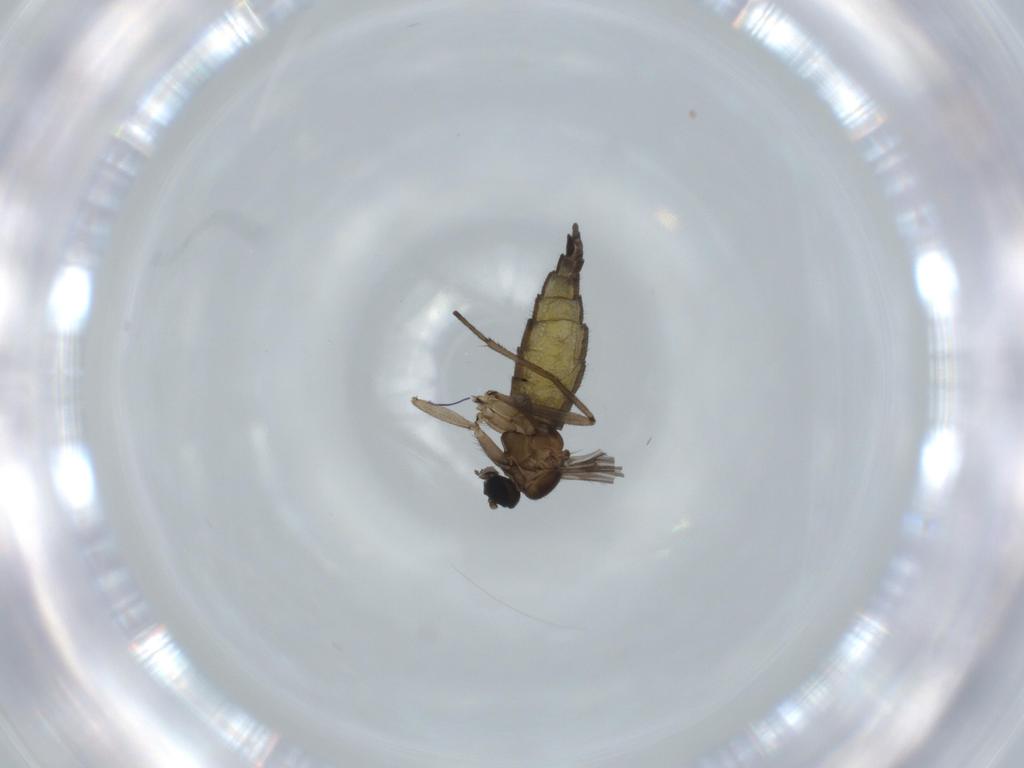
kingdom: Animalia
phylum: Arthropoda
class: Insecta
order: Diptera
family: Sciaridae
